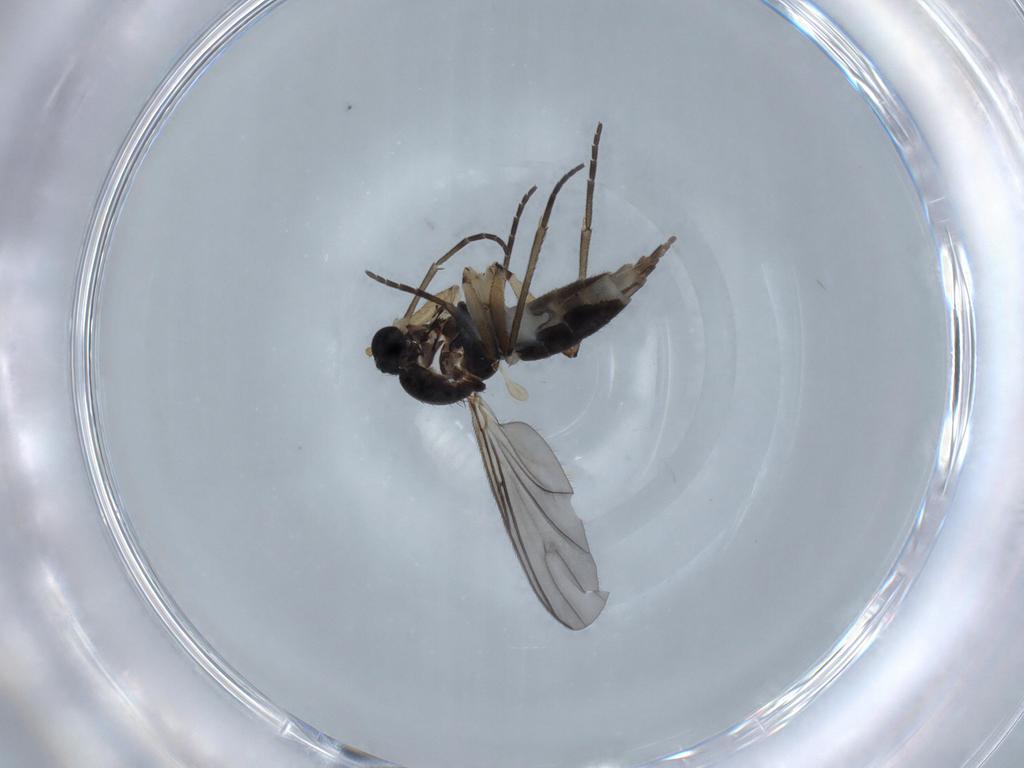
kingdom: Animalia
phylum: Arthropoda
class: Insecta
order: Diptera
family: Sciaridae
